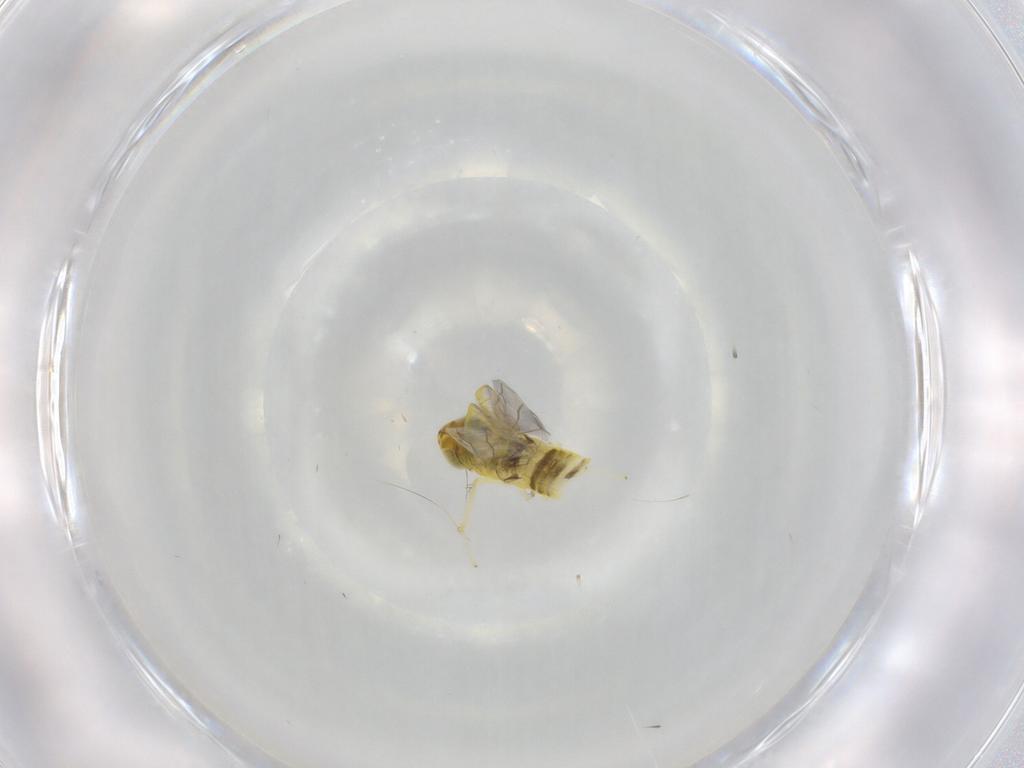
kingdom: Animalia
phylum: Arthropoda
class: Insecta
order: Hemiptera
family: Cicadellidae
